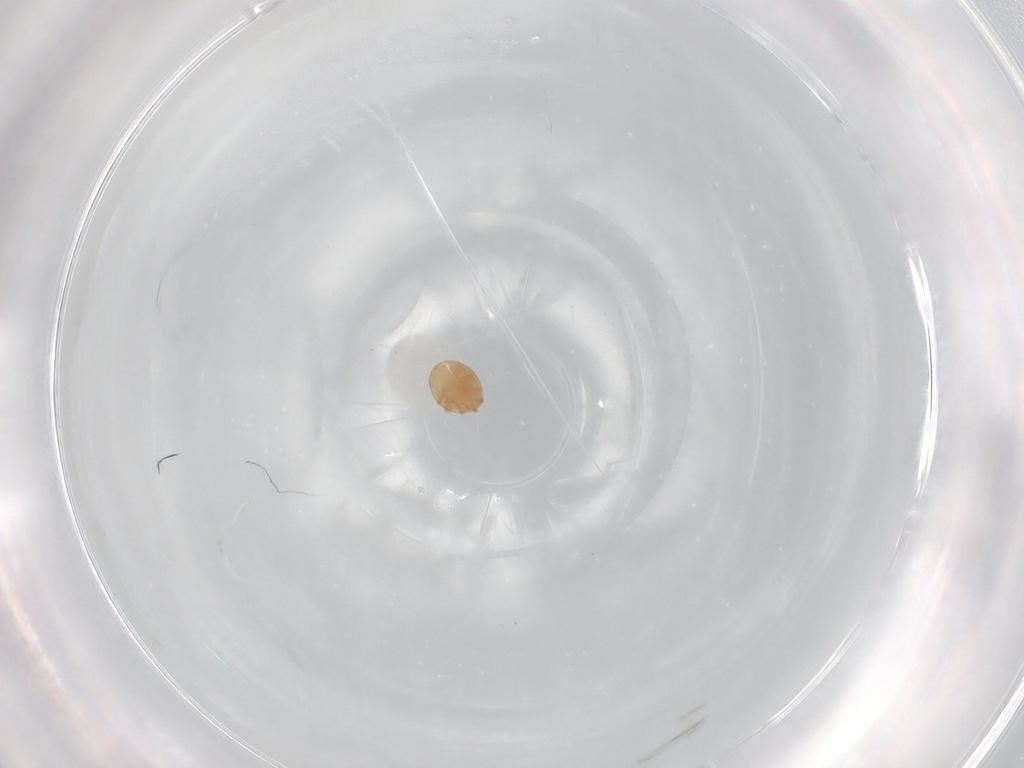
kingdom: Animalia
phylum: Arthropoda
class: Arachnida
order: Mesostigmata
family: Trematuridae
